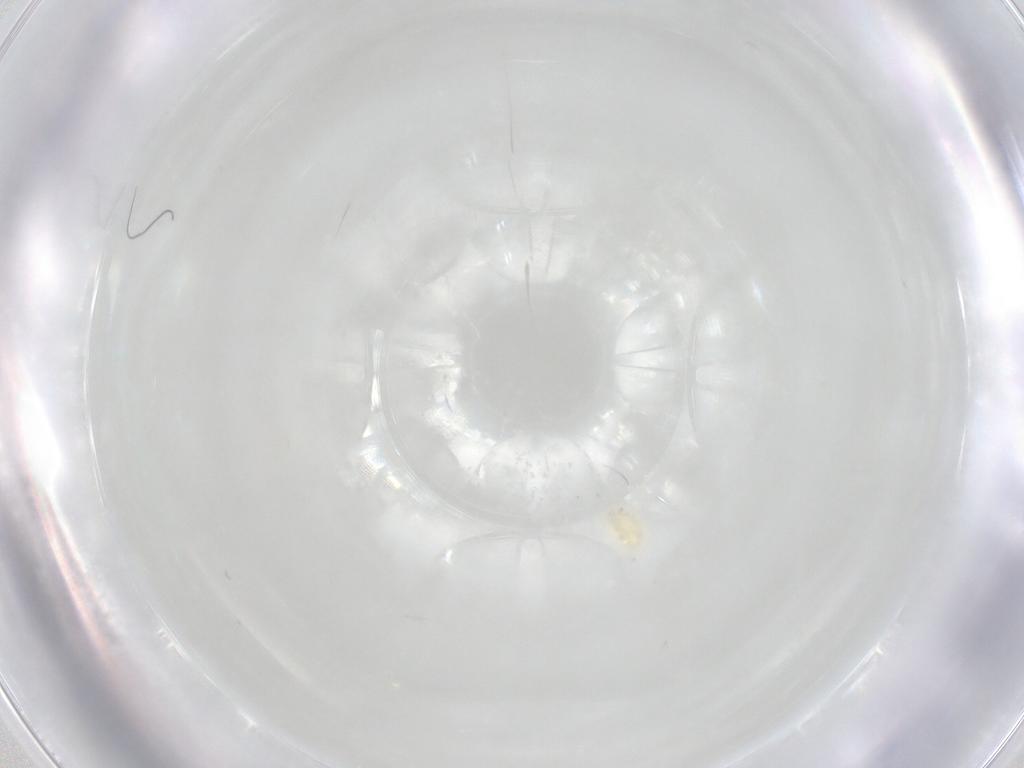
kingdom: Animalia
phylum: Arthropoda
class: Arachnida
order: Trombidiformes
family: Eupodidae
